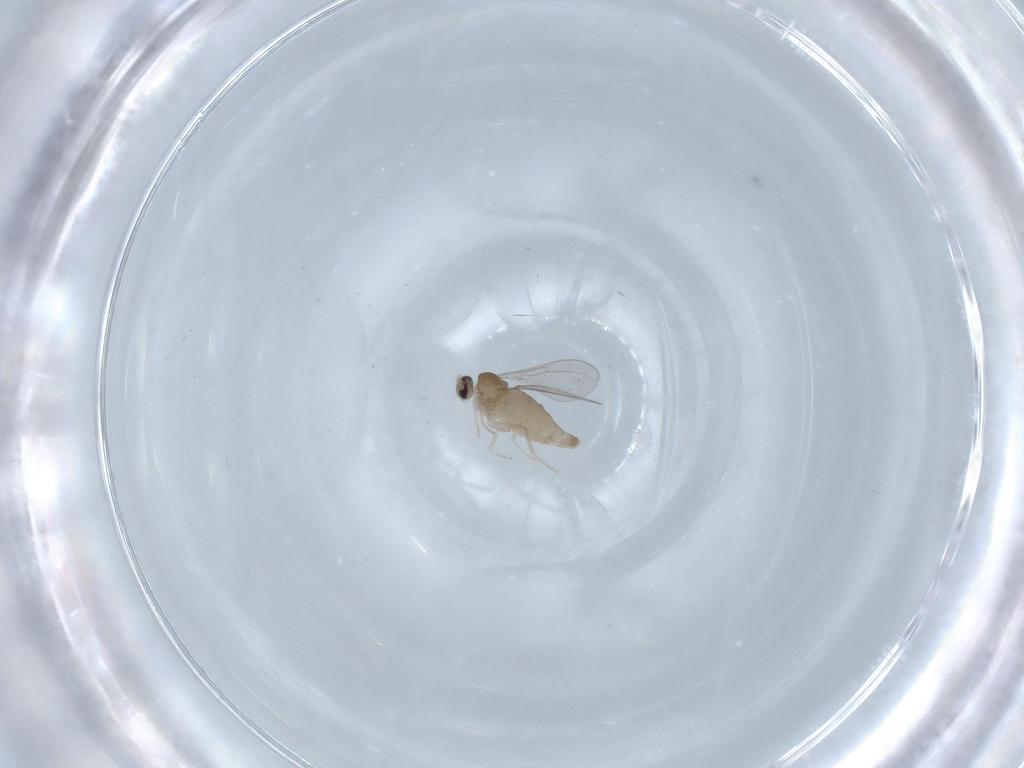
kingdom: Animalia
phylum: Arthropoda
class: Insecta
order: Diptera
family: Cecidomyiidae
